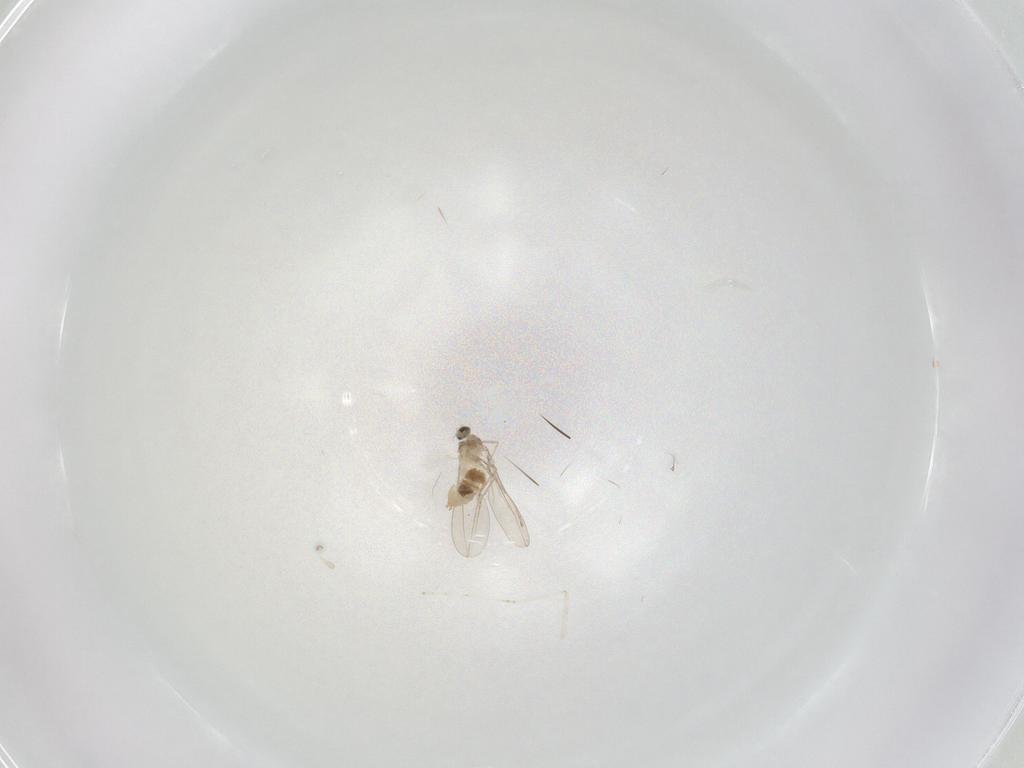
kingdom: Animalia
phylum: Arthropoda
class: Insecta
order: Diptera
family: Cecidomyiidae
